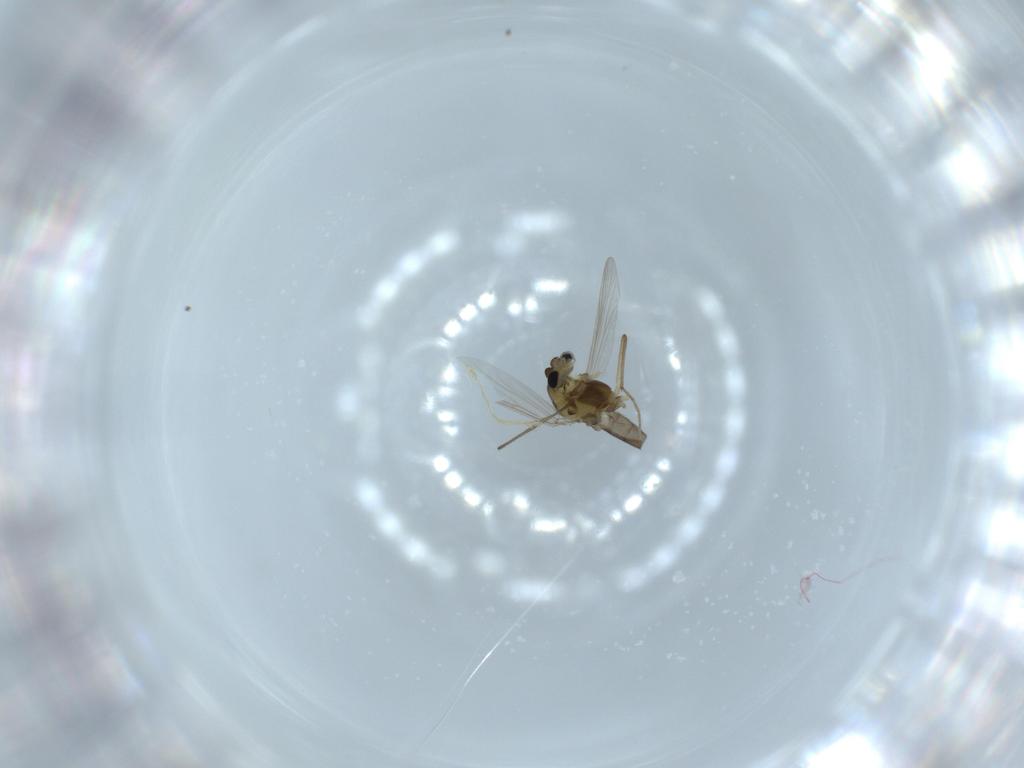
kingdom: Animalia
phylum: Arthropoda
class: Insecta
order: Diptera
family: Chironomidae
